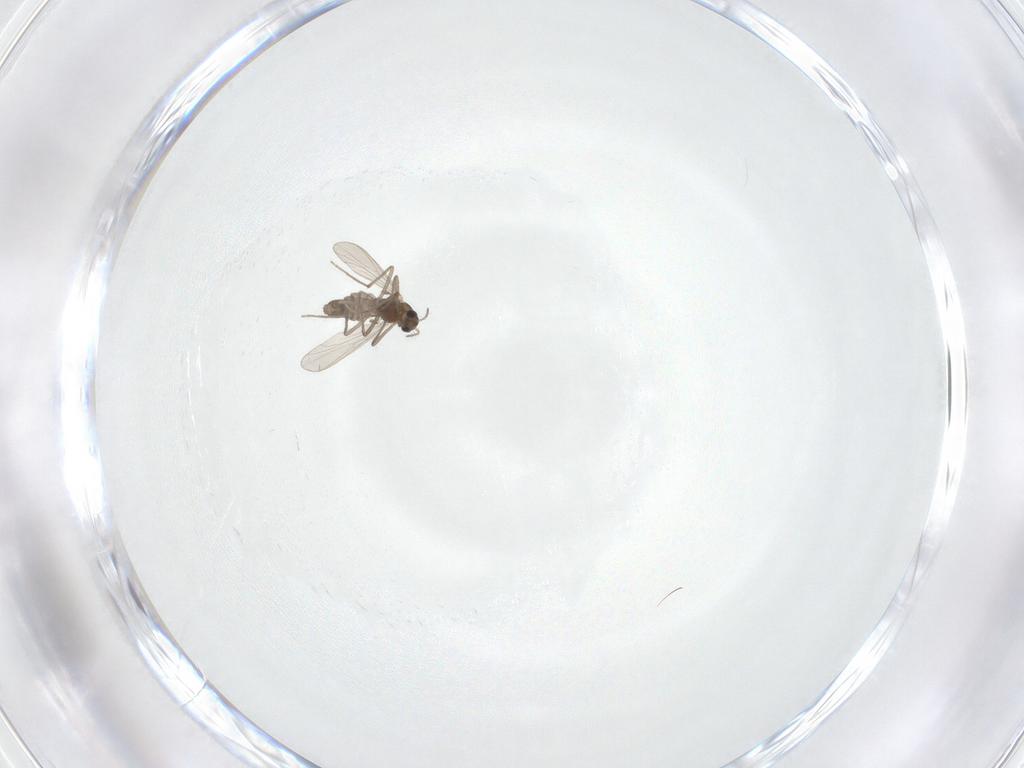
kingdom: Animalia
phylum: Arthropoda
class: Insecta
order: Diptera
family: Chironomidae
